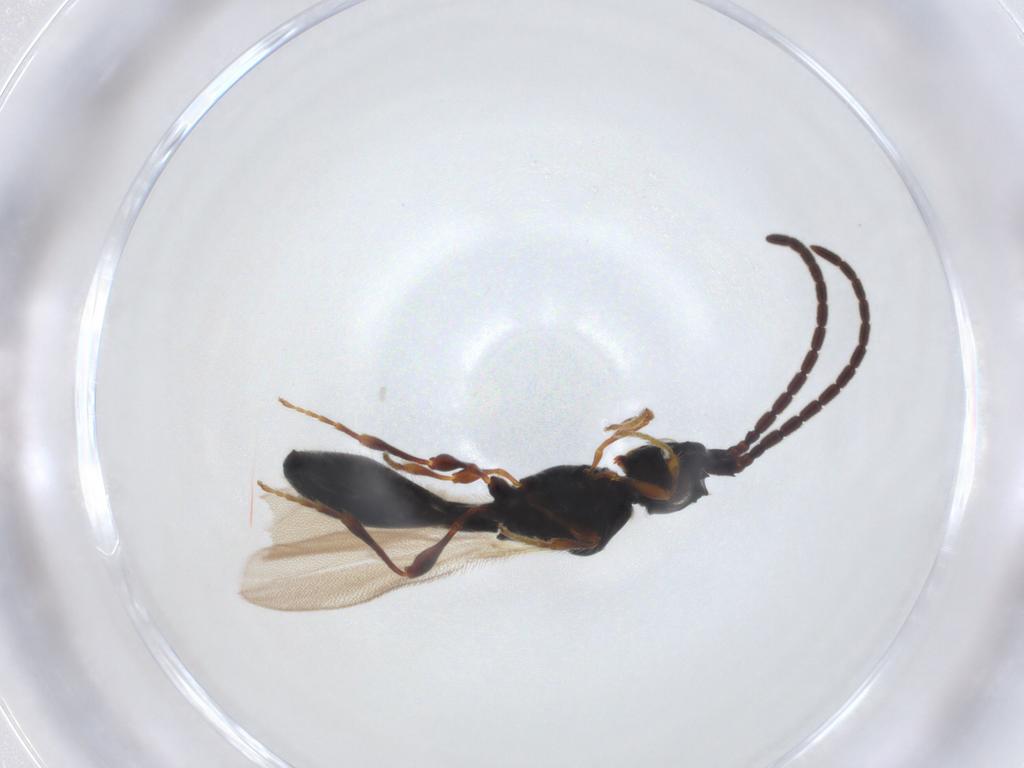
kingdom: Animalia
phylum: Arthropoda
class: Insecta
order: Hymenoptera
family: Diapriidae
